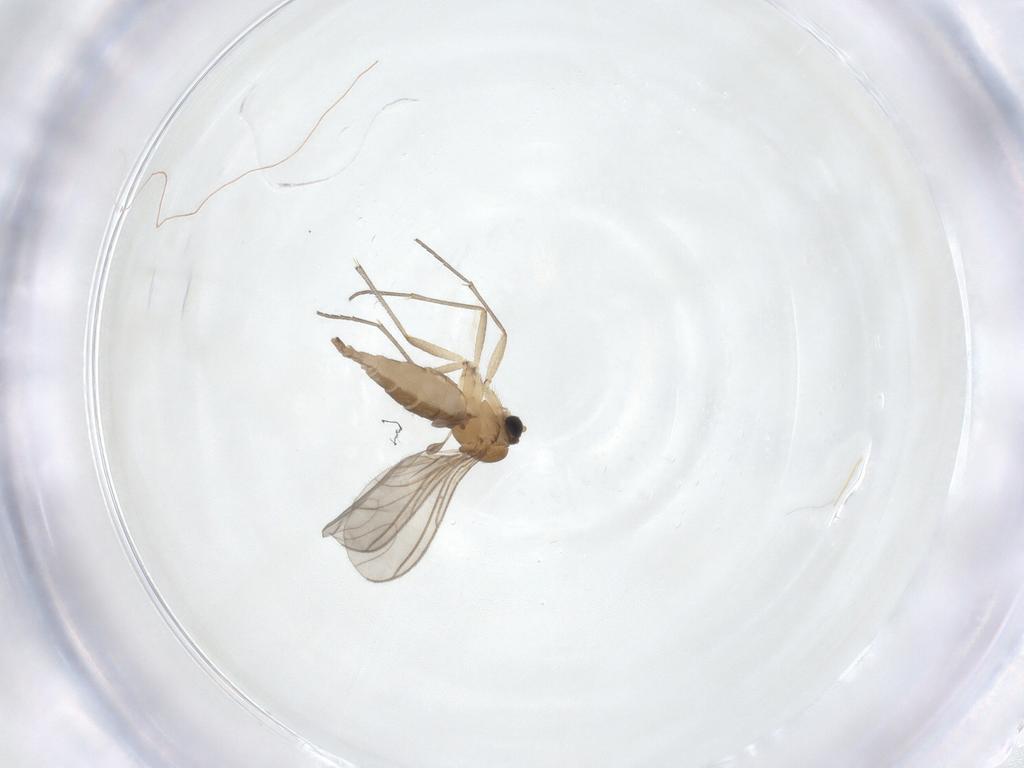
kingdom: Animalia
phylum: Arthropoda
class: Insecta
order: Diptera
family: Sciaridae
